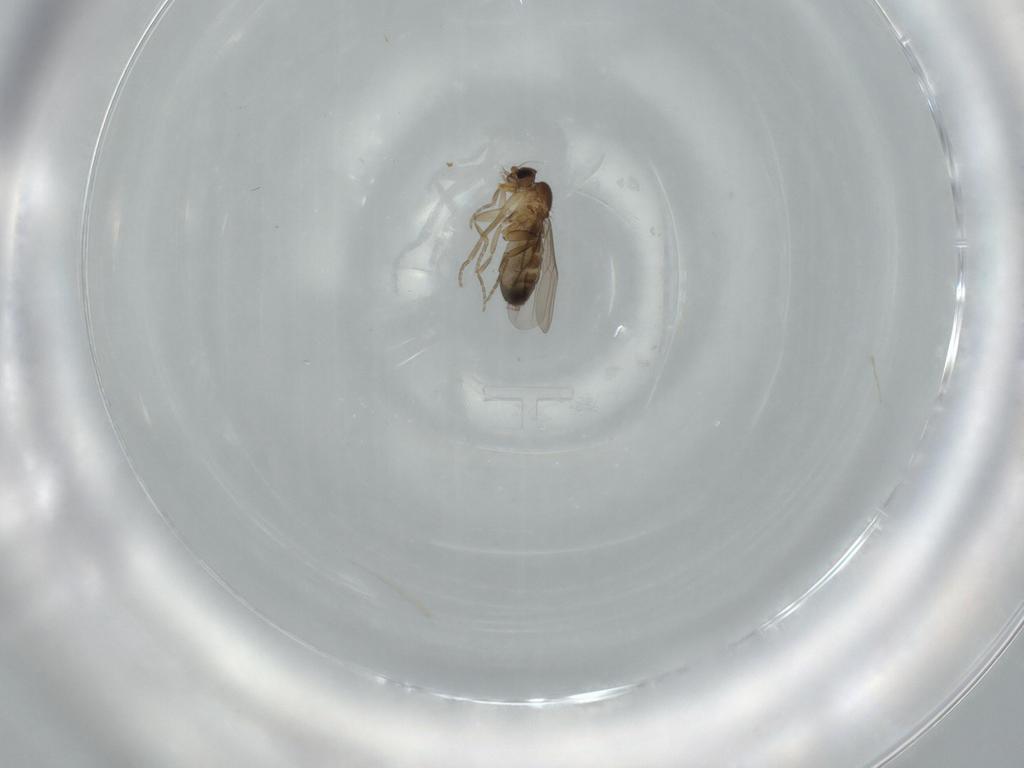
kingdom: Animalia
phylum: Arthropoda
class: Insecta
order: Diptera
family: Phoridae
